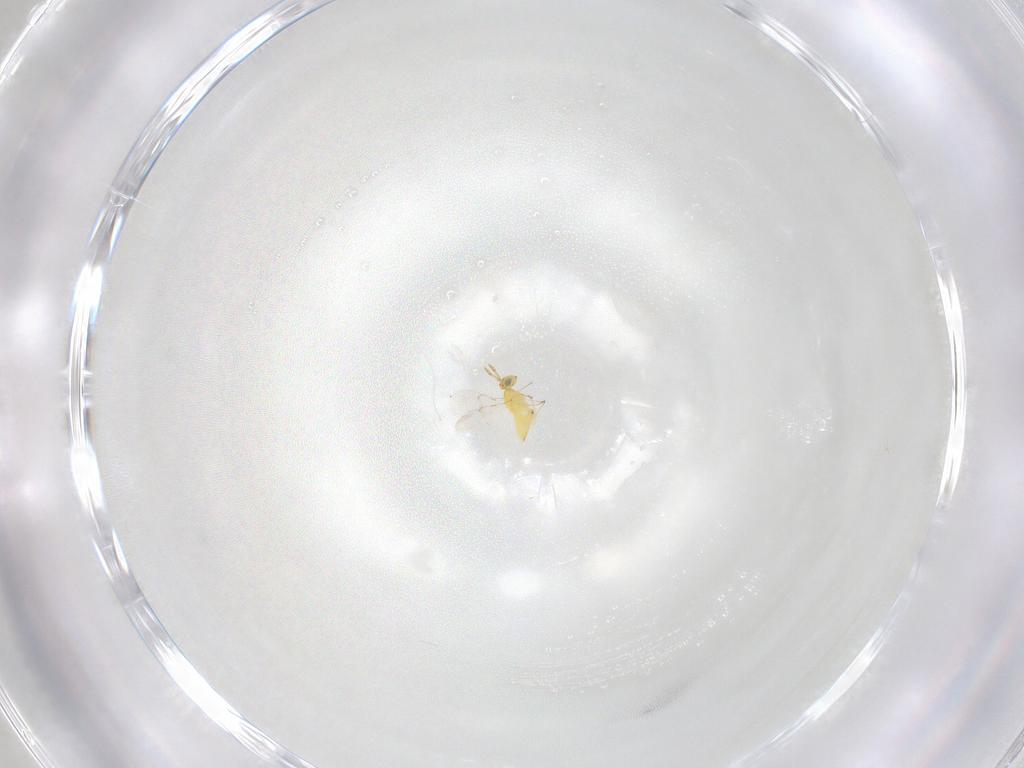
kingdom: Animalia
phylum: Arthropoda
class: Insecta
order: Hymenoptera
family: Trichogrammatidae
